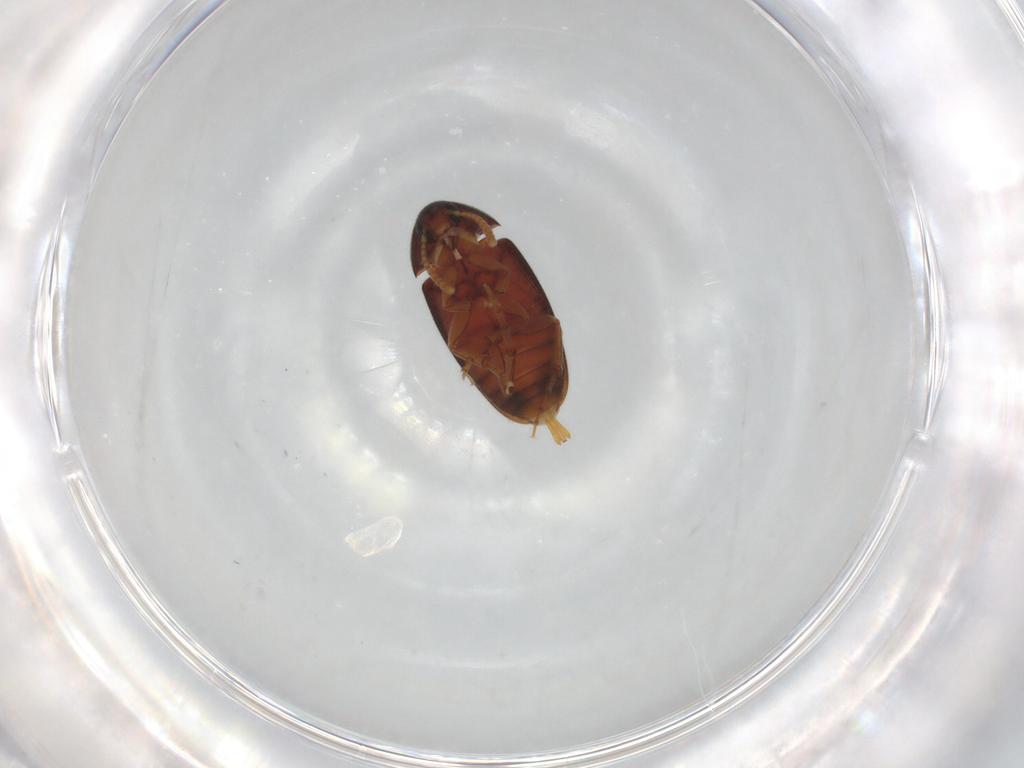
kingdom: Animalia
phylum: Arthropoda
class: Insecta
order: Coleoptera
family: Scraptiidae
